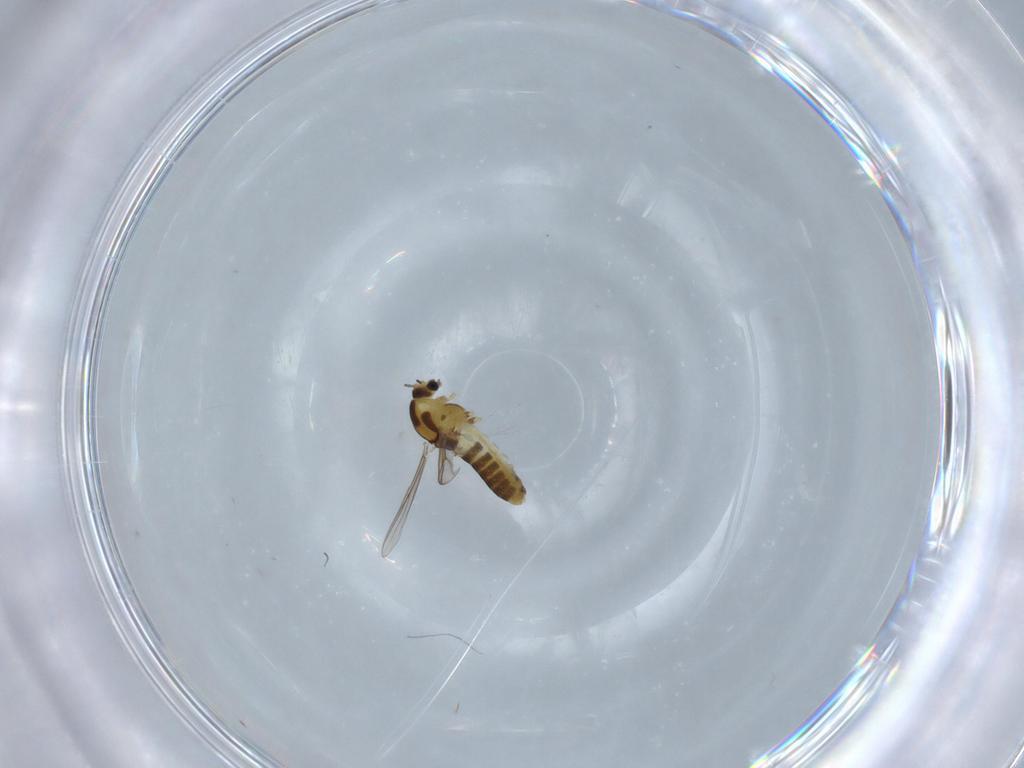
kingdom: Animalia
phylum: Arthropoda
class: Insecta
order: Diptera
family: Chironomidae
